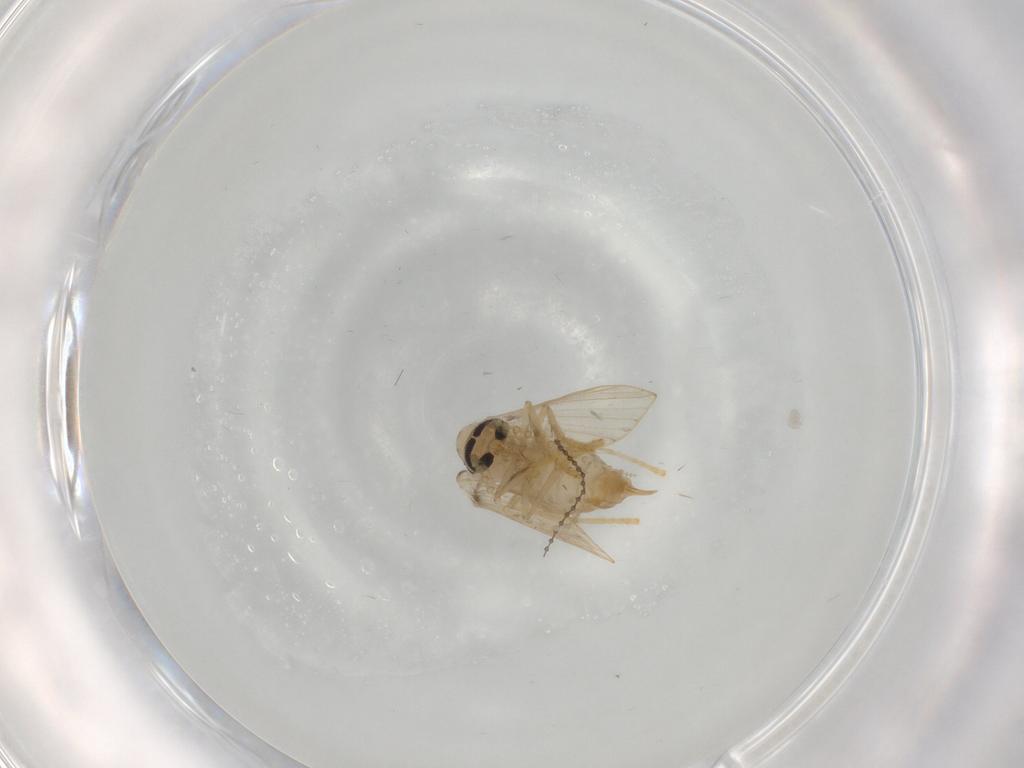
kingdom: Animalia
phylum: Arthropoda
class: Insecta
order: Diptera
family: Psychodidae
